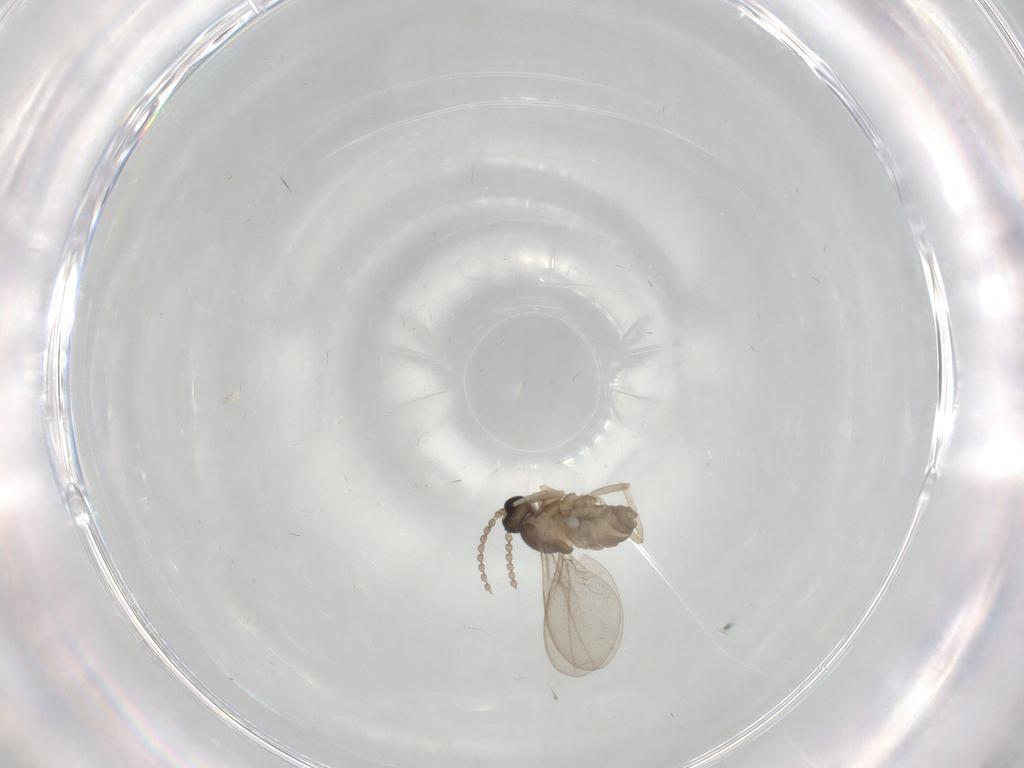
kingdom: Animalia
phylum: Arthropoda
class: Insecta
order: Diptera
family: Cecidomyiidae
